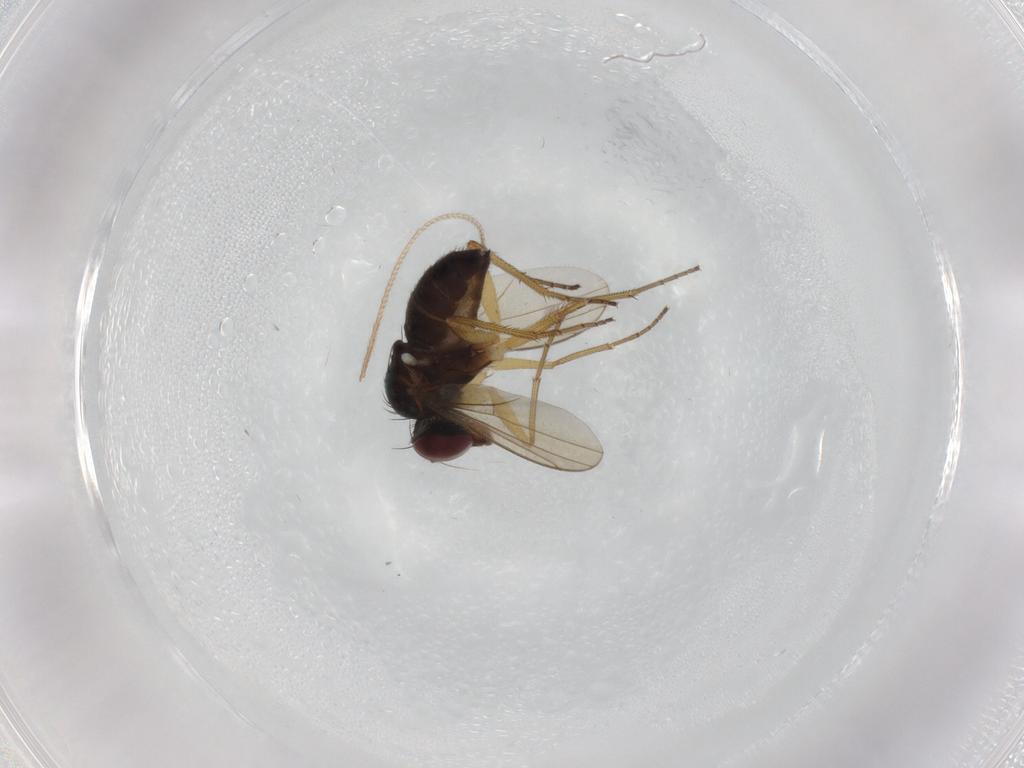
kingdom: Animalia
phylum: Arthropoda
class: Insecta
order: Diptera
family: Dolichopodidae
